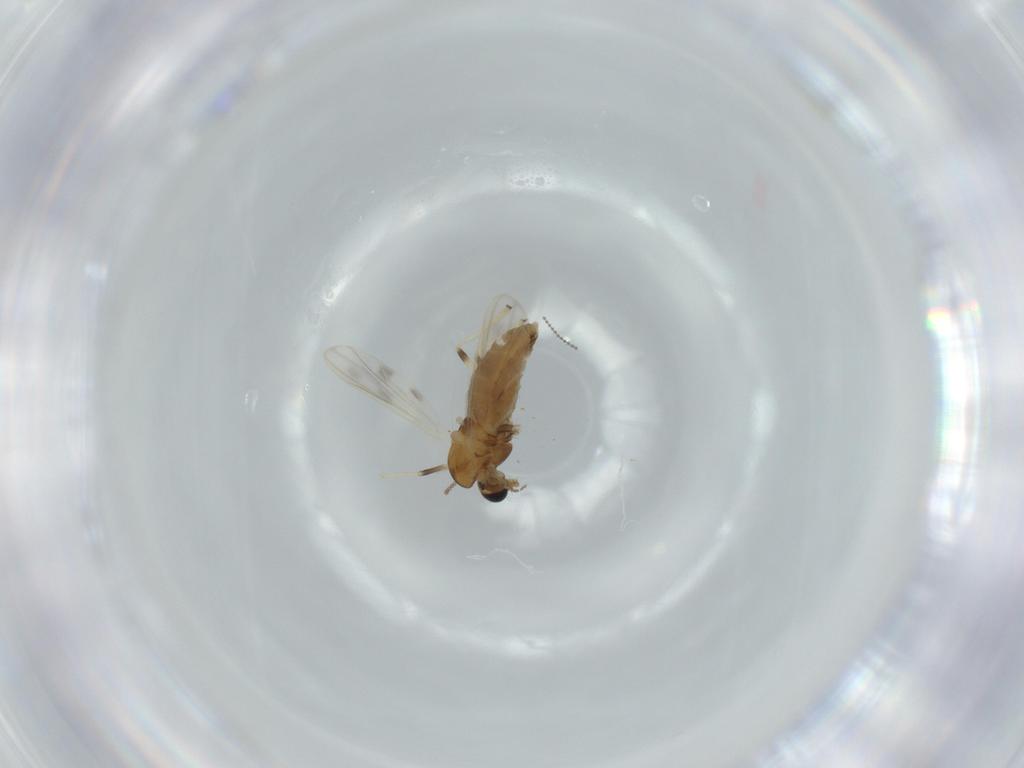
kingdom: Animalia
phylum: Arthropoda
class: Insecta
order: Diptera
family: Chironomidae
